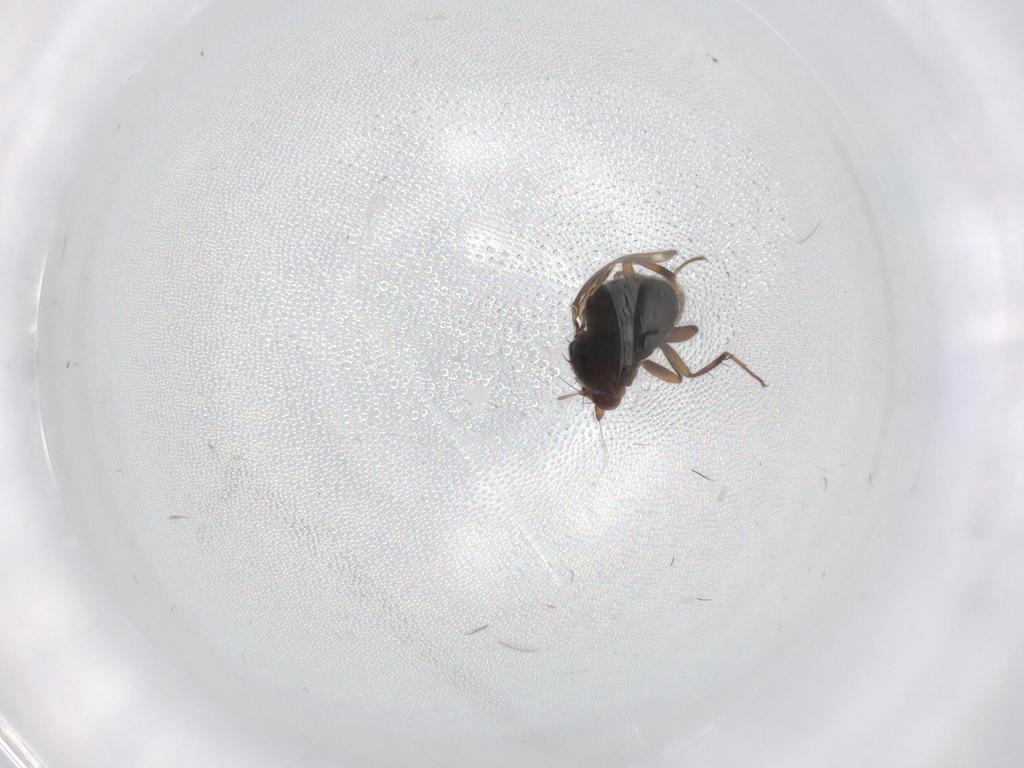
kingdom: Animalia
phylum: Arthropoda
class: Insecta
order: Diptera
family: Sphaeroceridae
